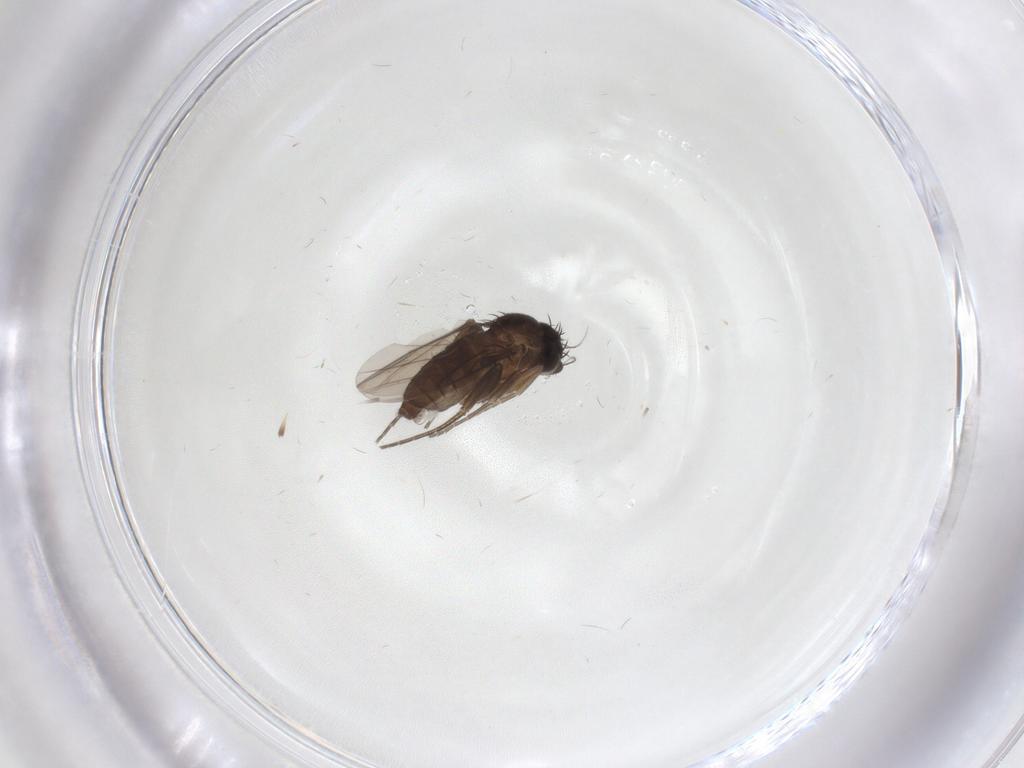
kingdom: Animalia
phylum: Arthropoda
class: Insecta
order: Diptera
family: Phoridae
